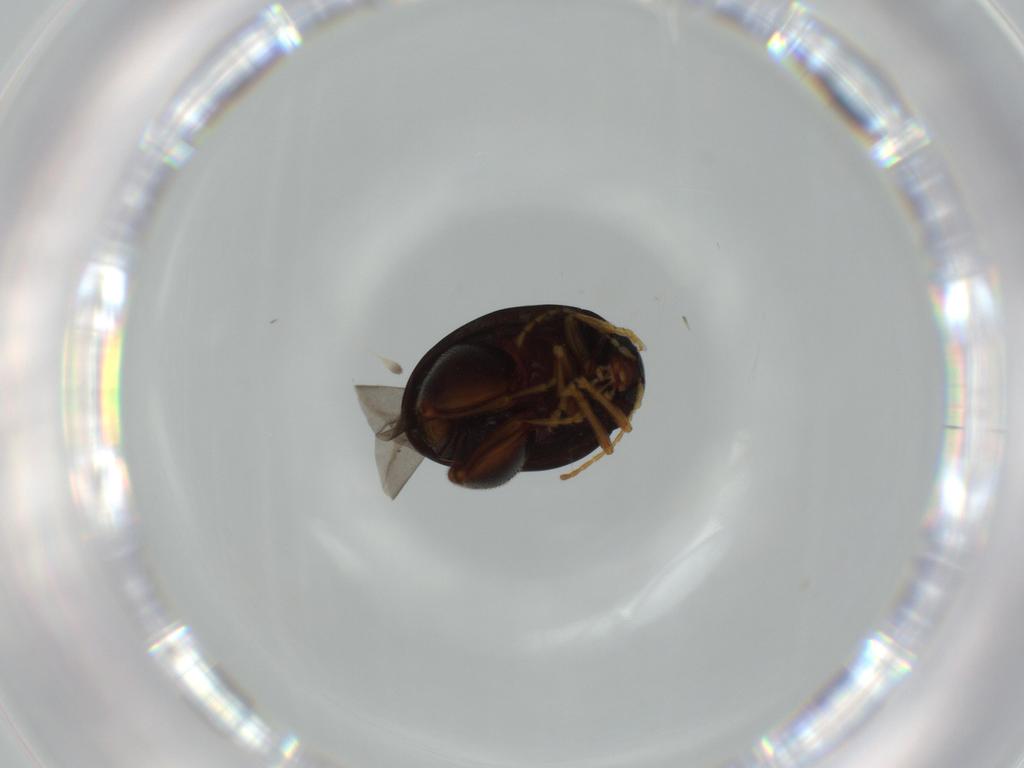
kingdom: Animalia
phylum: Arthropoda
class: Insecta
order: Coleoptera
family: Chrysomelidae
